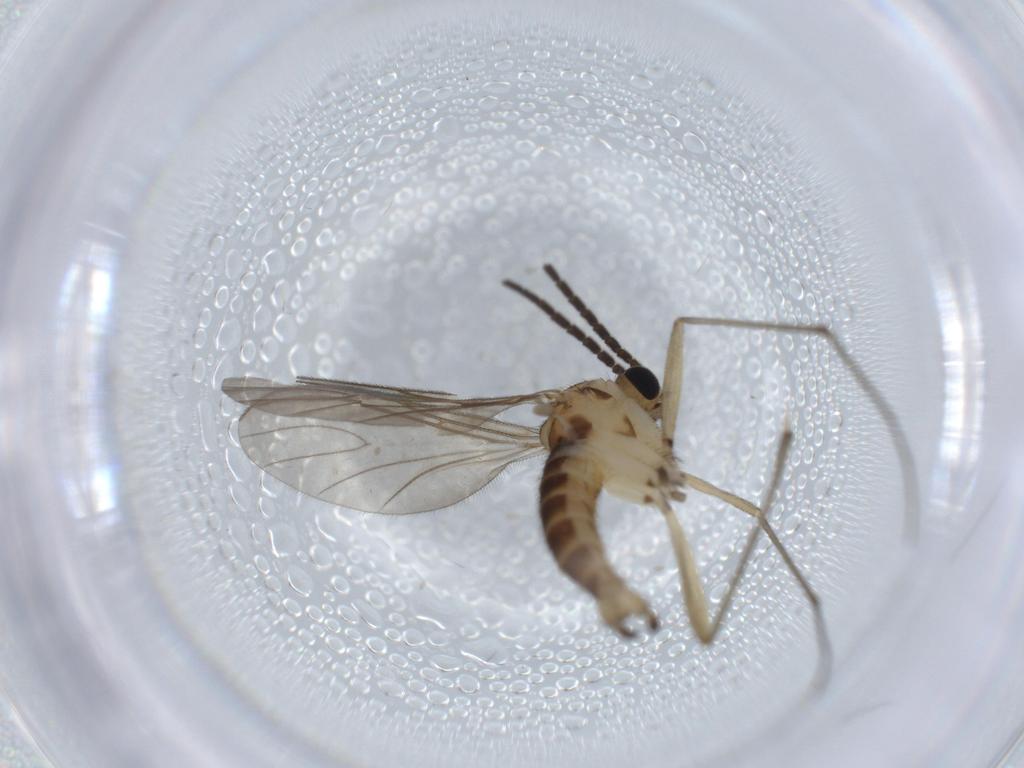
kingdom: Animalia
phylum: Arthropoda
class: Insecta
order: Diptera
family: Sciaridae
